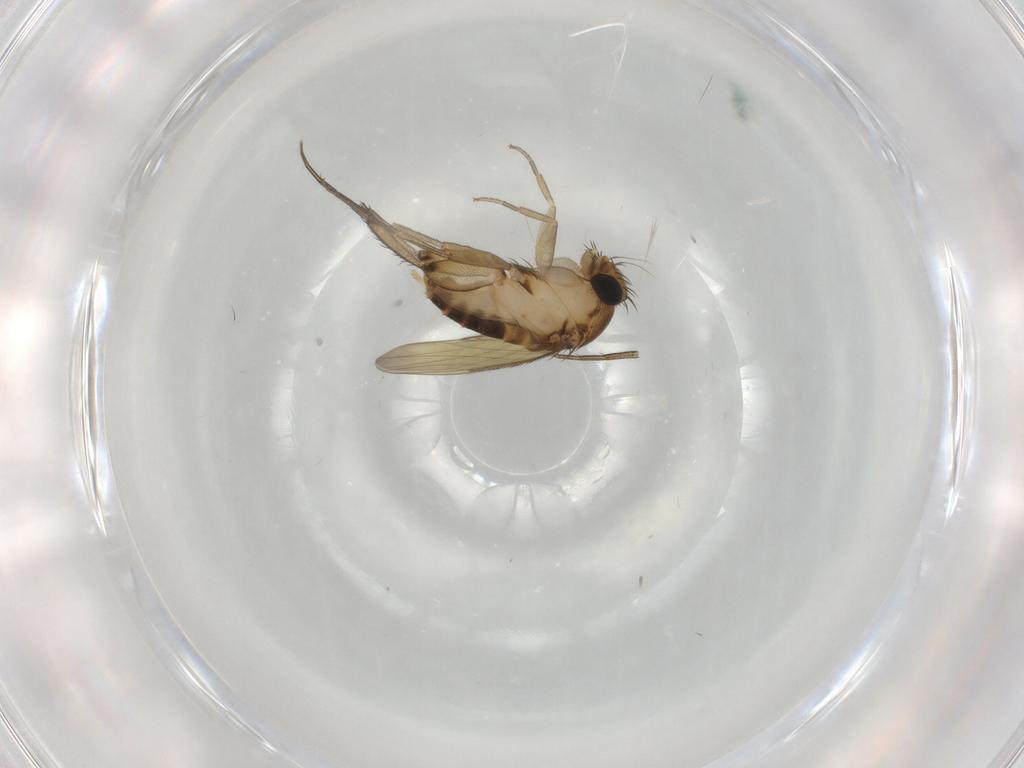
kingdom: Animalia
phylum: Arthropoda
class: Insecta
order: Diptera
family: Phoridae
